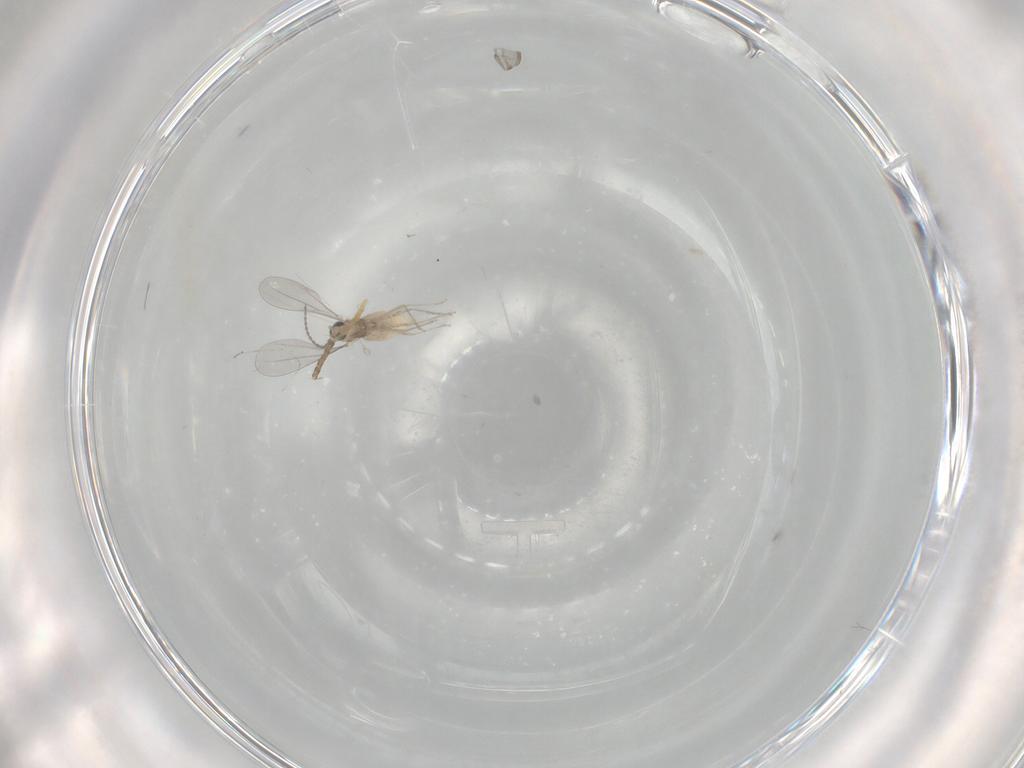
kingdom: Animalia
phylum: Arthropoda
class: Insecta
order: Diptera
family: Cecidomyiidae
